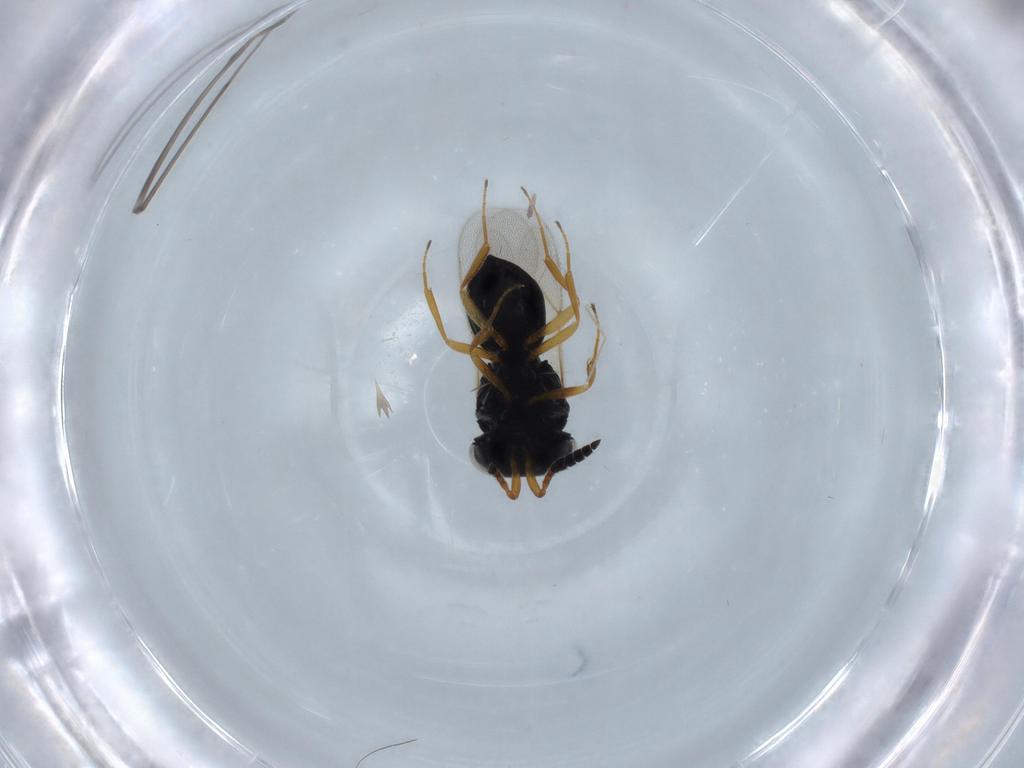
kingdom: Animalia
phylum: Arthropoda
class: Insecta
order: Hymenoptera
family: Scelionidae
